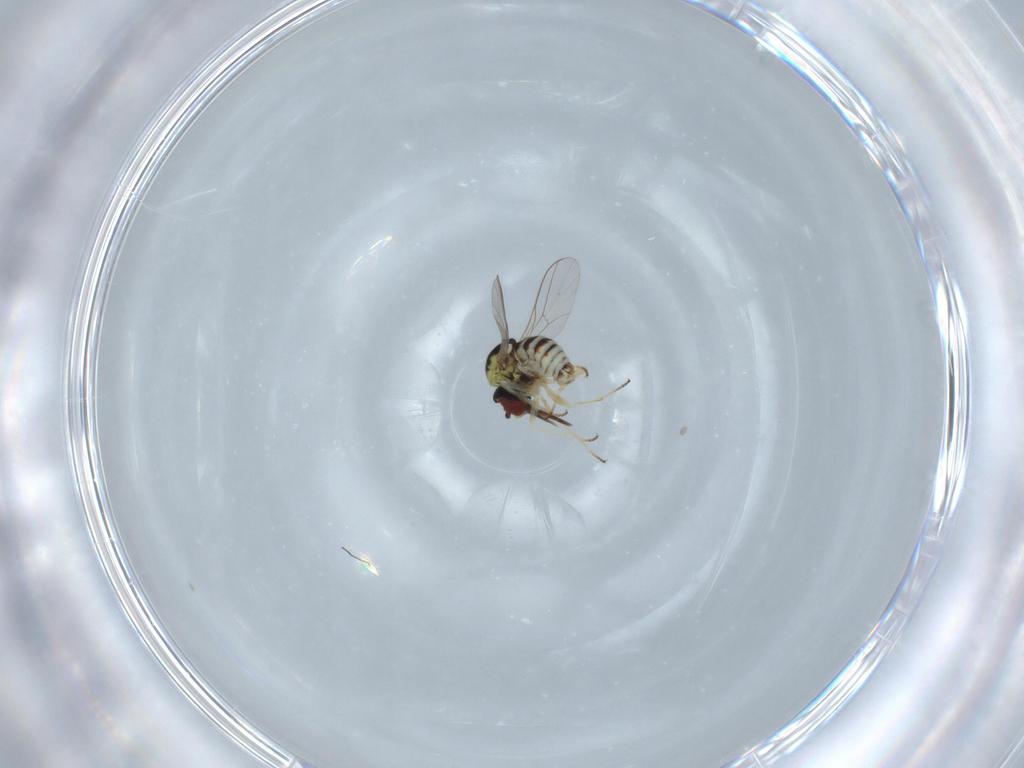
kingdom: Animalia
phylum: Arthropoda
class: Insecta
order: Diptera
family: Bombyliidae
